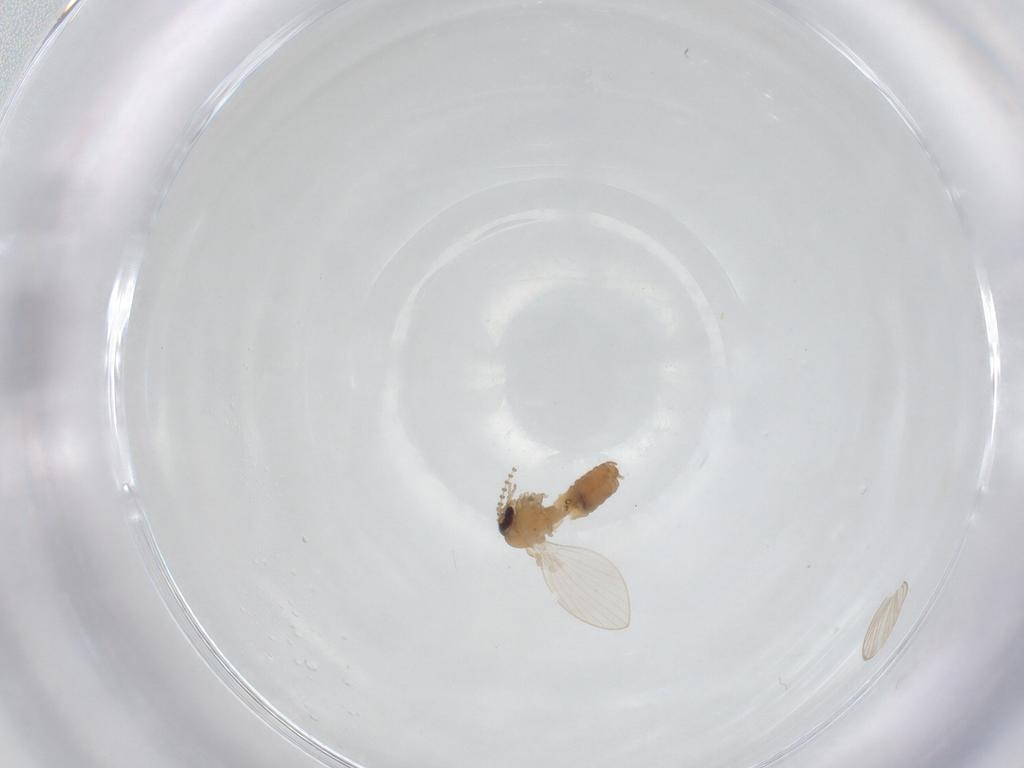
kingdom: Animalia
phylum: Arthropoda
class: Insecta
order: Diptera
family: Psychodidae
